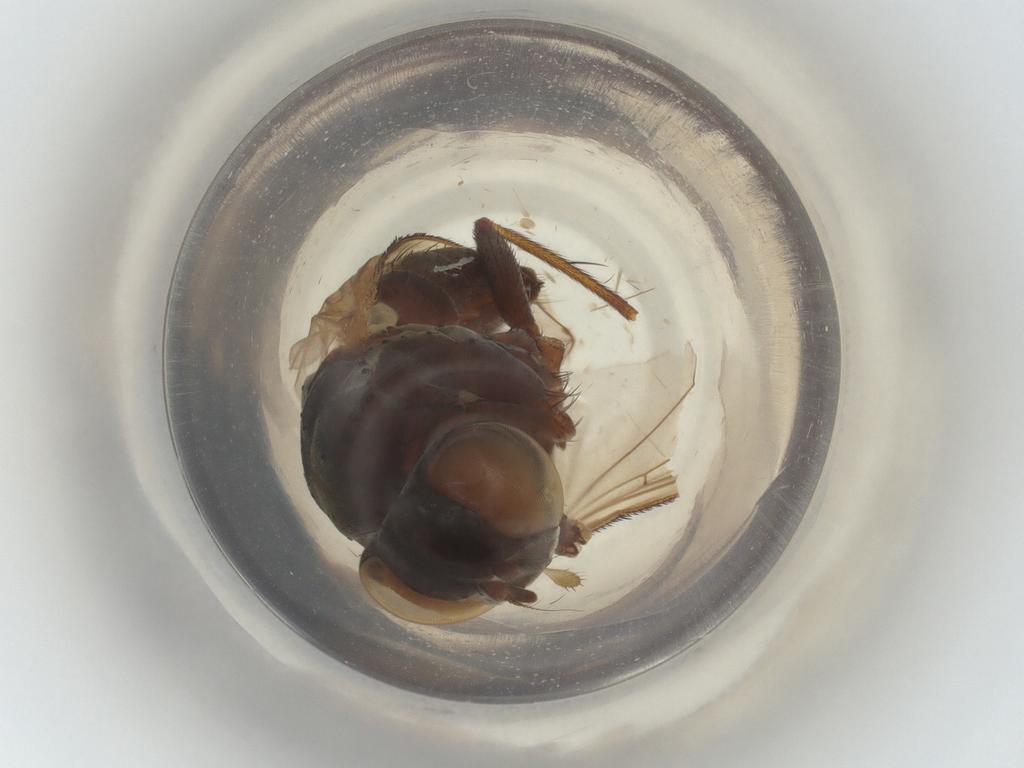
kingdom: Animalia
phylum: Arthropoda
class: Insecta
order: Diptera
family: Muscidae
